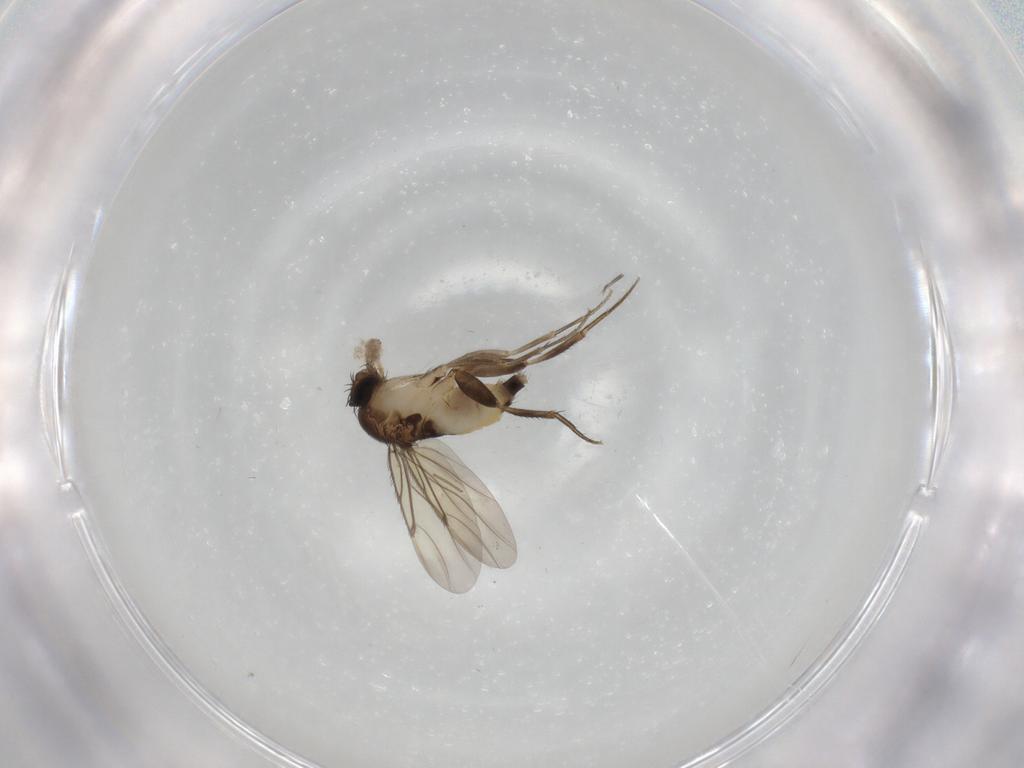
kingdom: Animalia
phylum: Arthropoda
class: Insecta
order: Diptera
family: Phoridae
